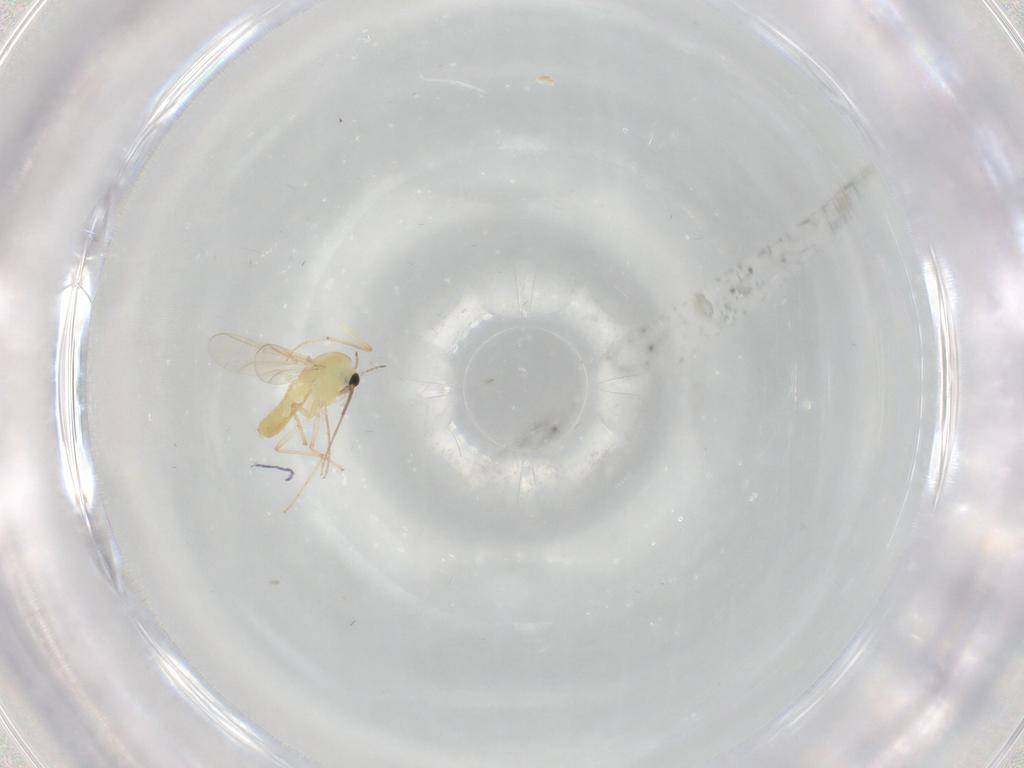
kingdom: Animalia
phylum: Arthropoda
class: Insecta
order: Diptera
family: Chironomidae
